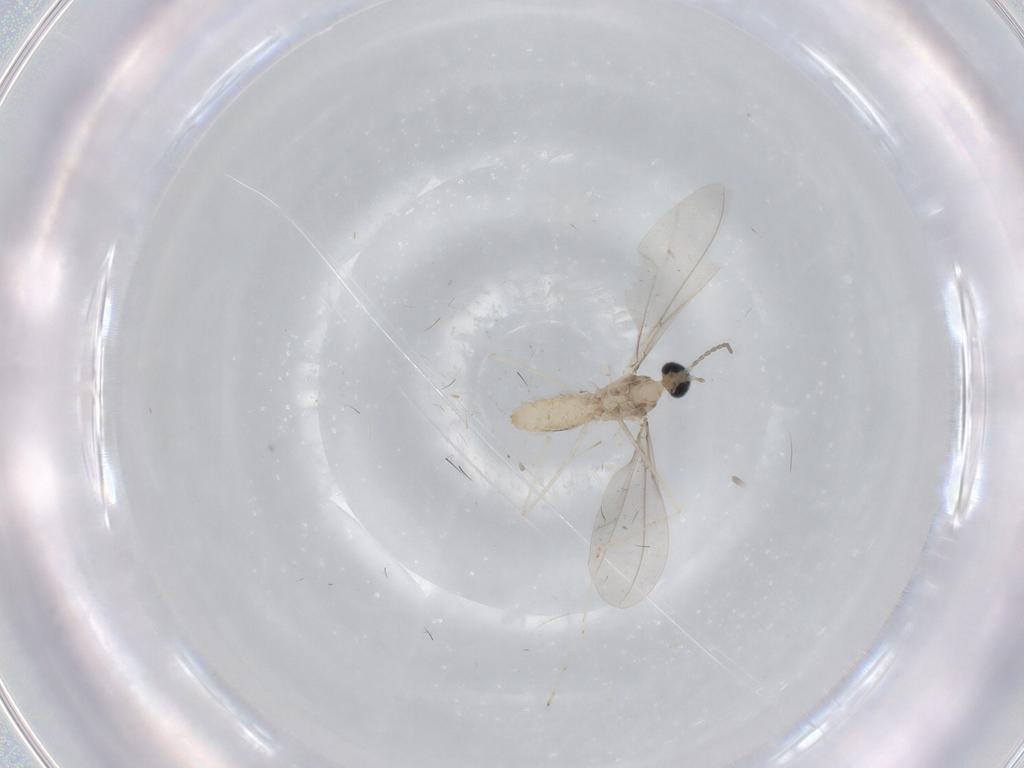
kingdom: Animalia
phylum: Arthropoda
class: Insecta
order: Diptera
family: Cecidomyiidae
